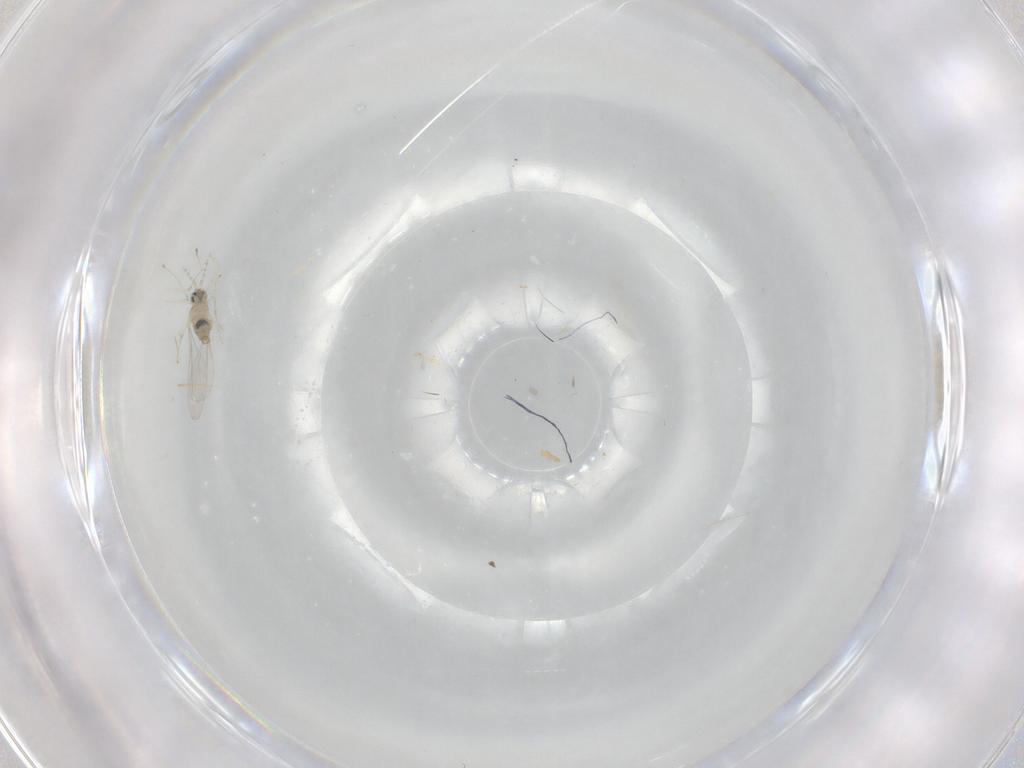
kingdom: Animalia
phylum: Arthropoda
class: Insecta
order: Diptera
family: Cecidomyiidae
